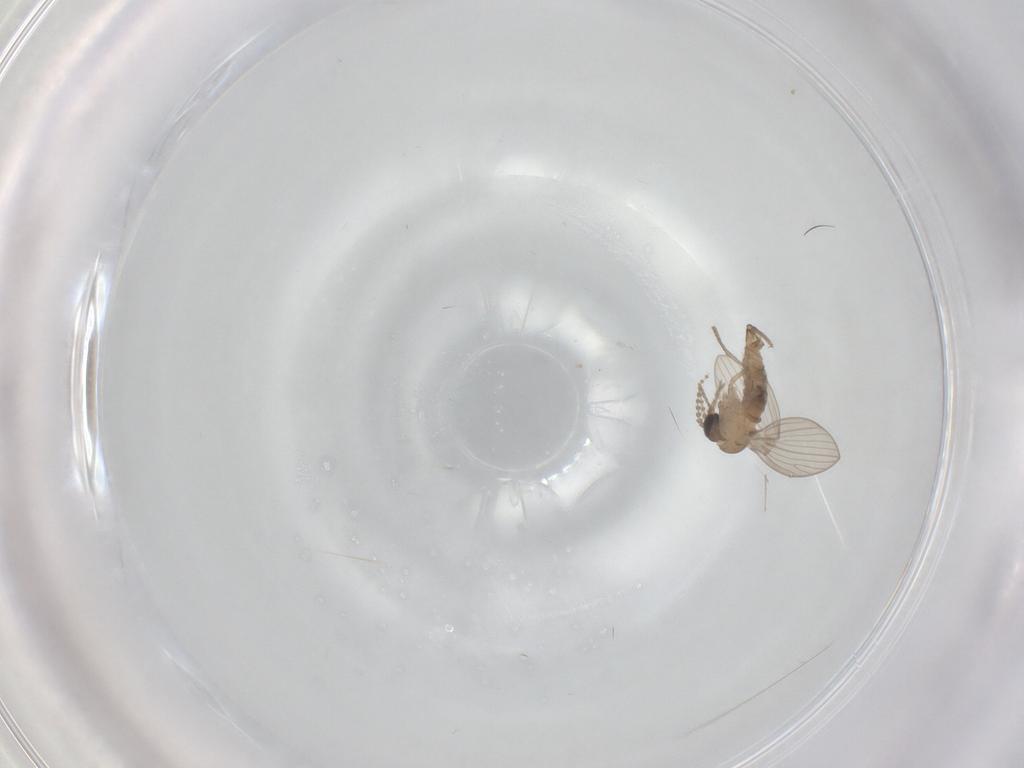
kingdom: Animalia
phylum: Arthropoda
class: Insecta
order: Diptera
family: Psychodidae
